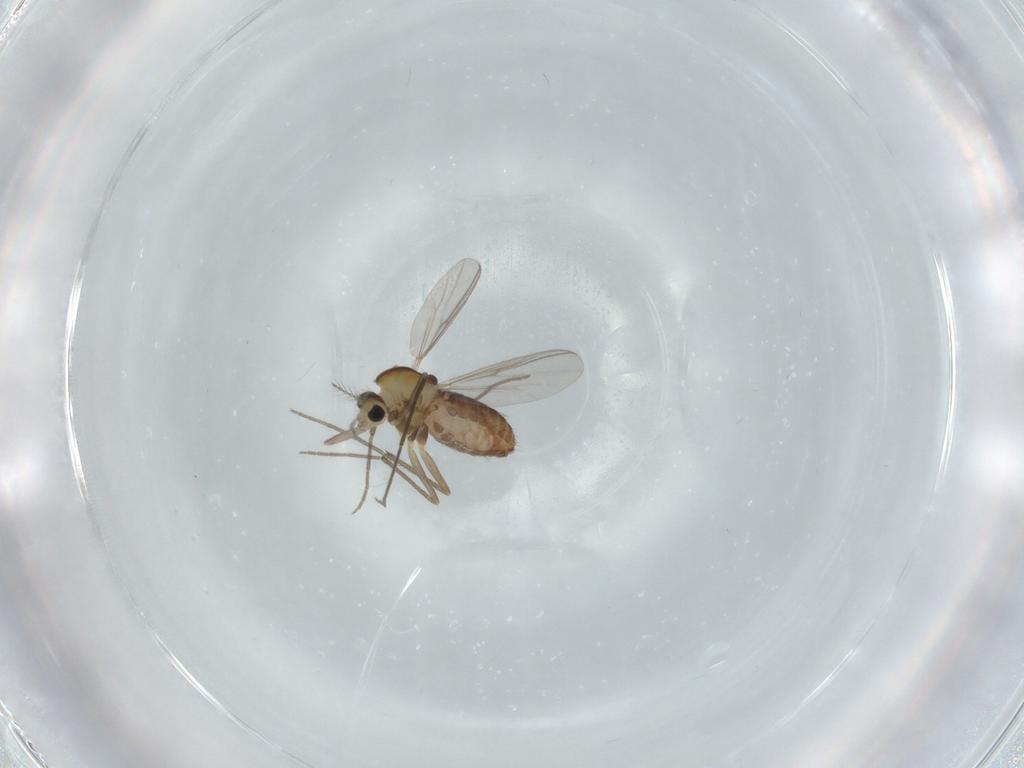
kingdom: Animalia
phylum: Arthropoda
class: Insecta
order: Diptera
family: Chironomidae
